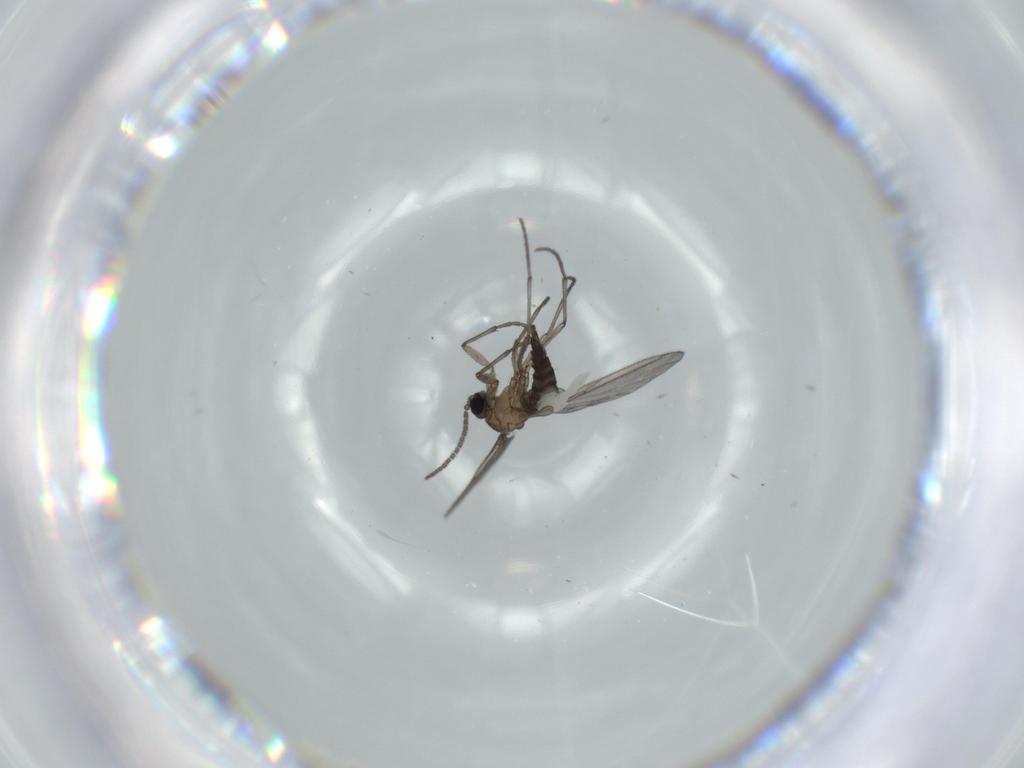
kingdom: Animalia
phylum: Arthropoda
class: Insecta
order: Diptera
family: Sciaridae
